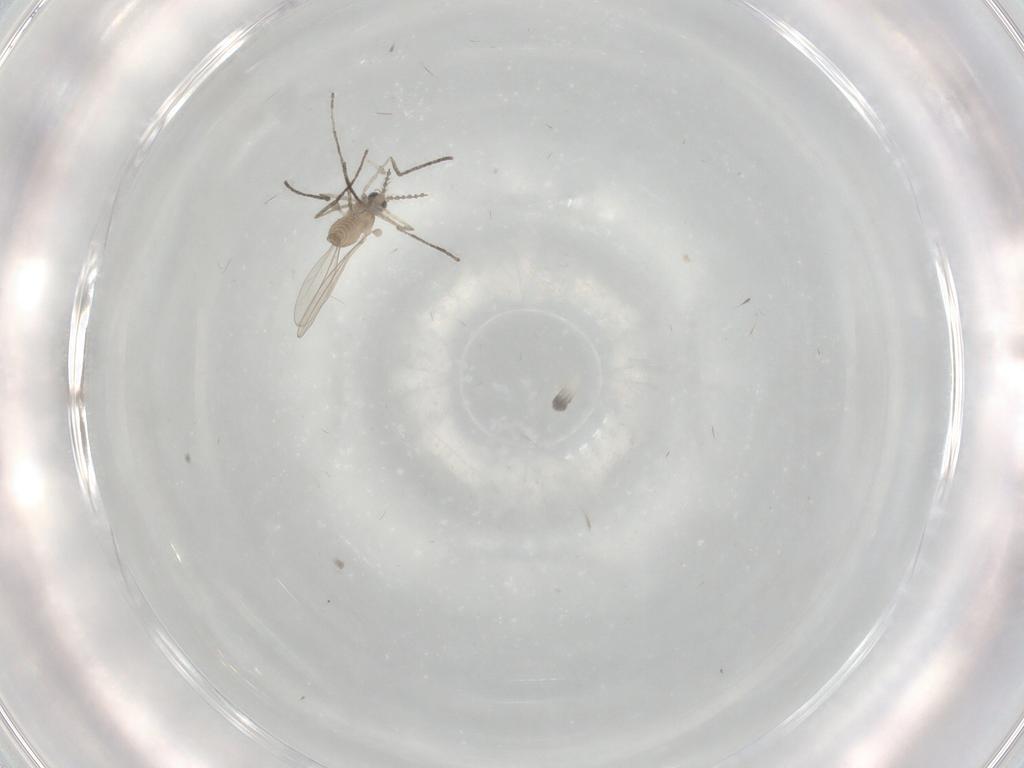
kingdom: Animalia
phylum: Arthropoda
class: Insecta
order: Diptera
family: Cecidomyiidae
